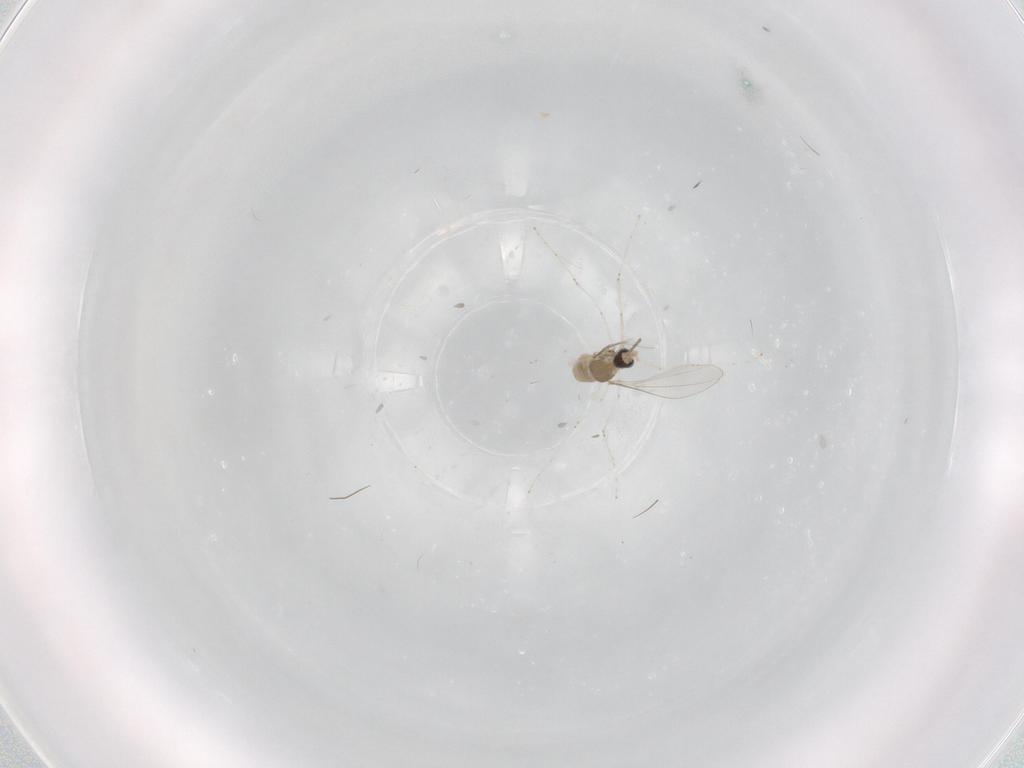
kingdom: Animalia
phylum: Arthropoda
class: Insecta
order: Diptera
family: Cecidomyiidae
